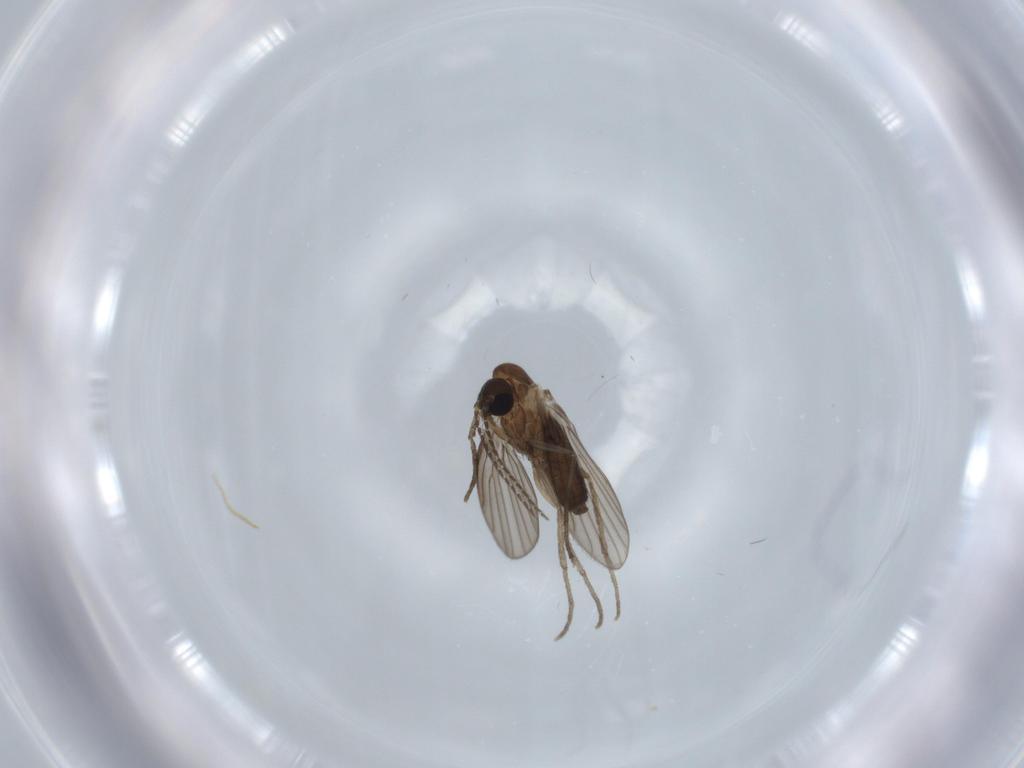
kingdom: Animalia
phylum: Arthropoda
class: Insecta
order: Diptera
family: Psychodidae
